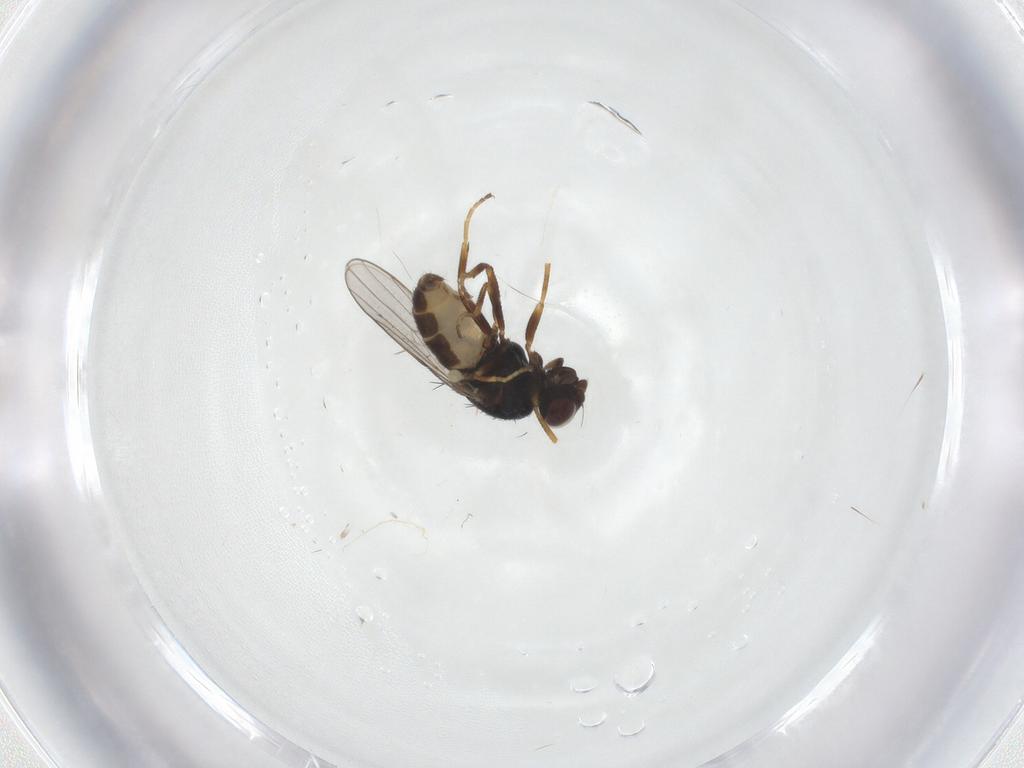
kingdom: Animalia
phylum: Arthropoda
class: Insecta
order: Diptera
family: Chloropidae
